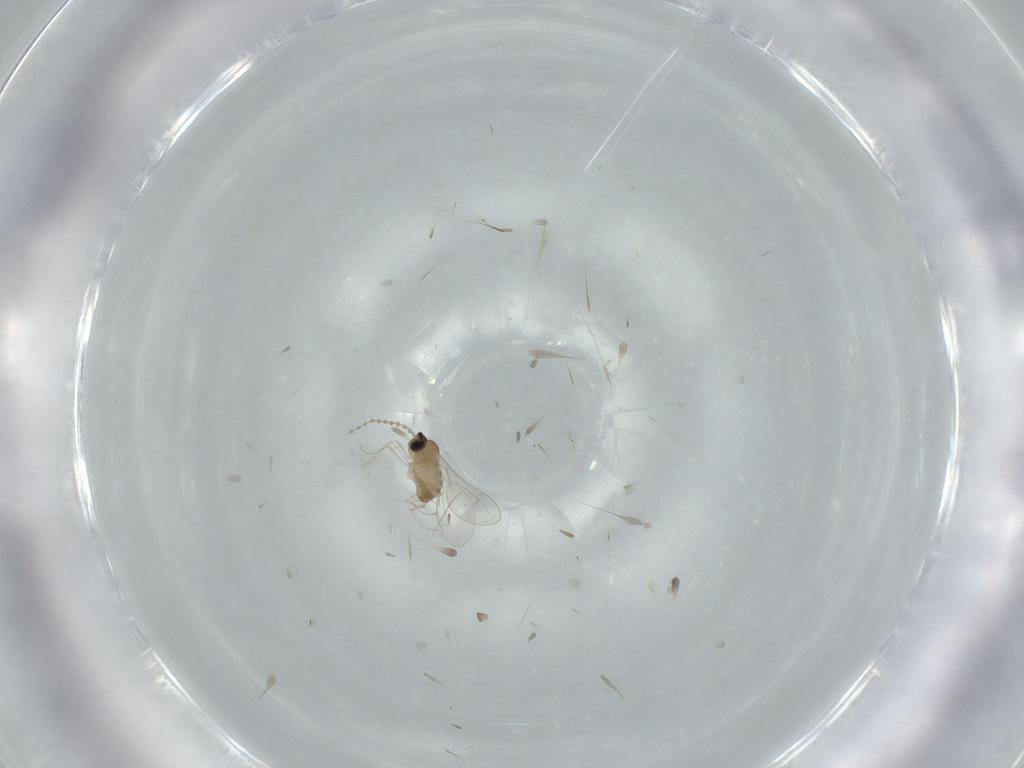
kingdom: Animalia
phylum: Arthropoda
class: Insecta
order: Diptera
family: Cecidomyiidae
